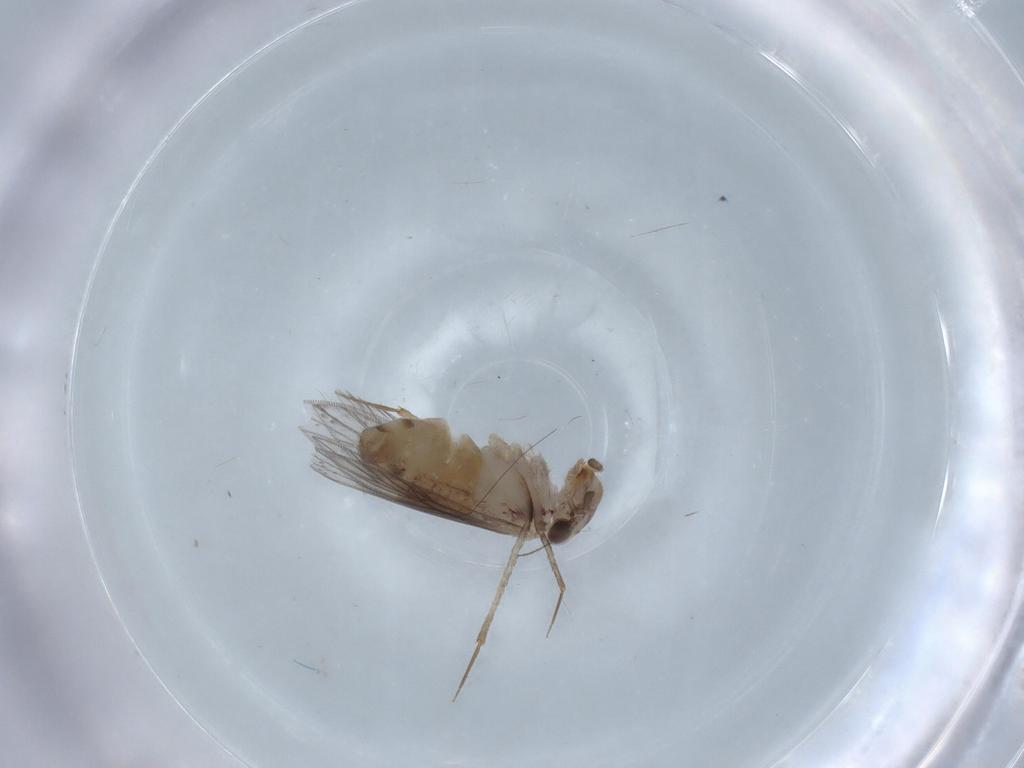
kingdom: Animalia
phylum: Arthropoda
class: Insecta
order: Psocodea
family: Lepidopsocidae
